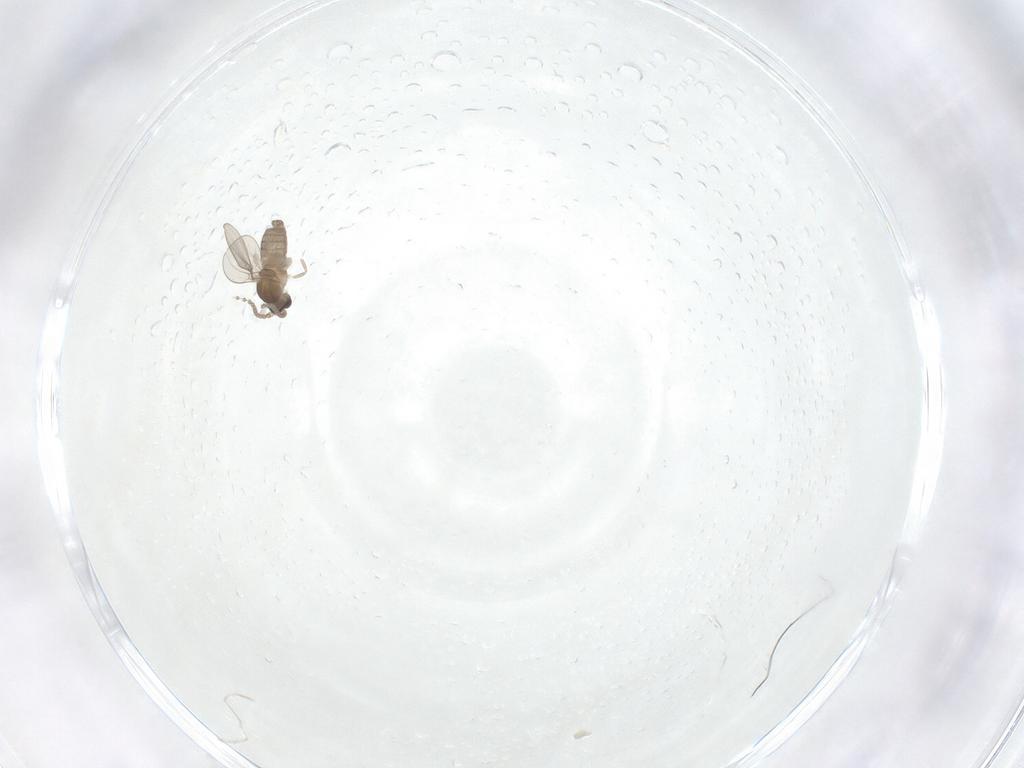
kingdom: Animalia
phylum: Arthropoda
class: Insecta
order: Diptera
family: Cecidomyiidae
